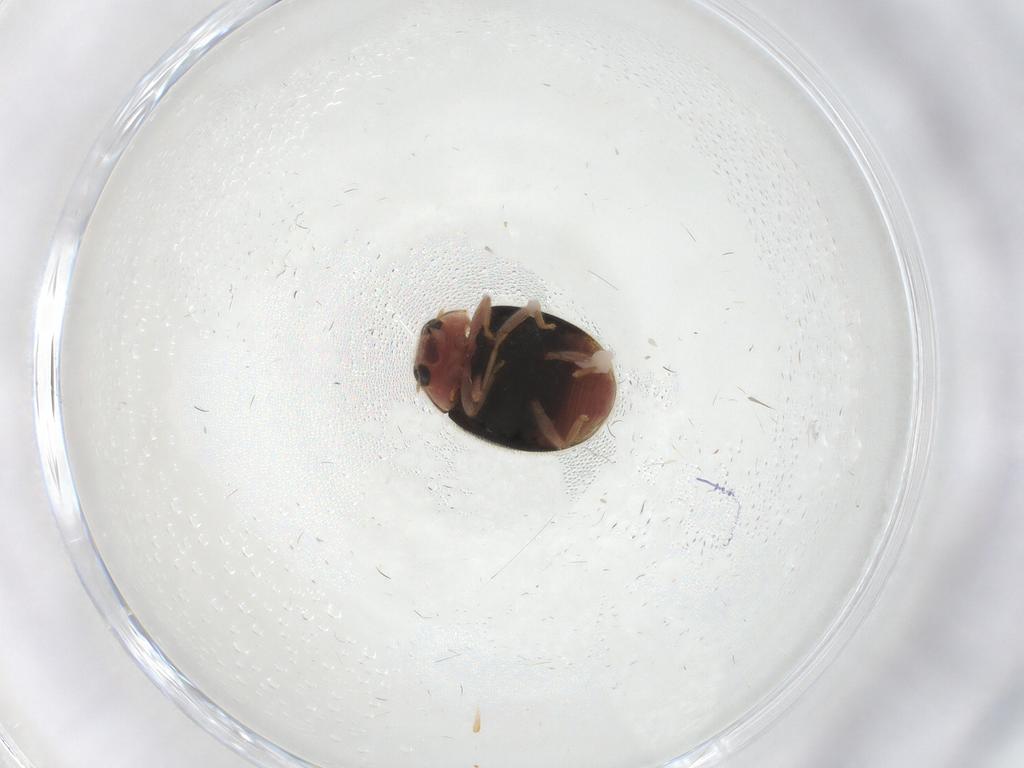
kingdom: Animalia
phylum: Arthropoda
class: Insecta
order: Coleoptera
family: Coccinellidae
